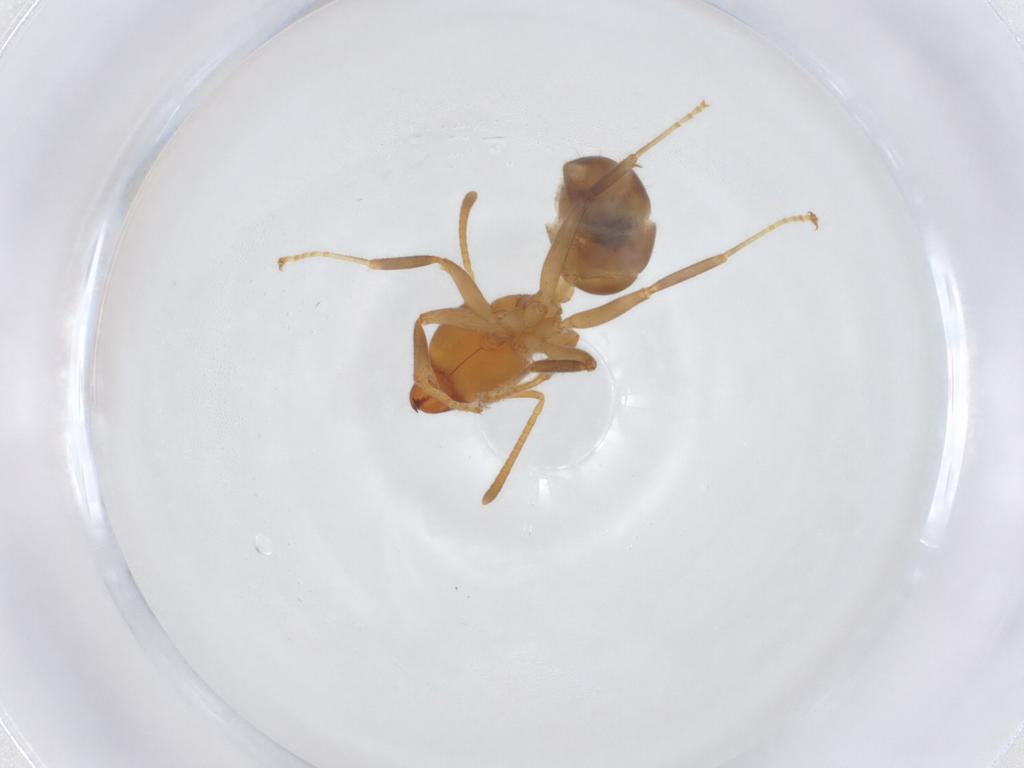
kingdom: Animalia
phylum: Arthropoda
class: Insecta
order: Hymenoptera
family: Formicidae
